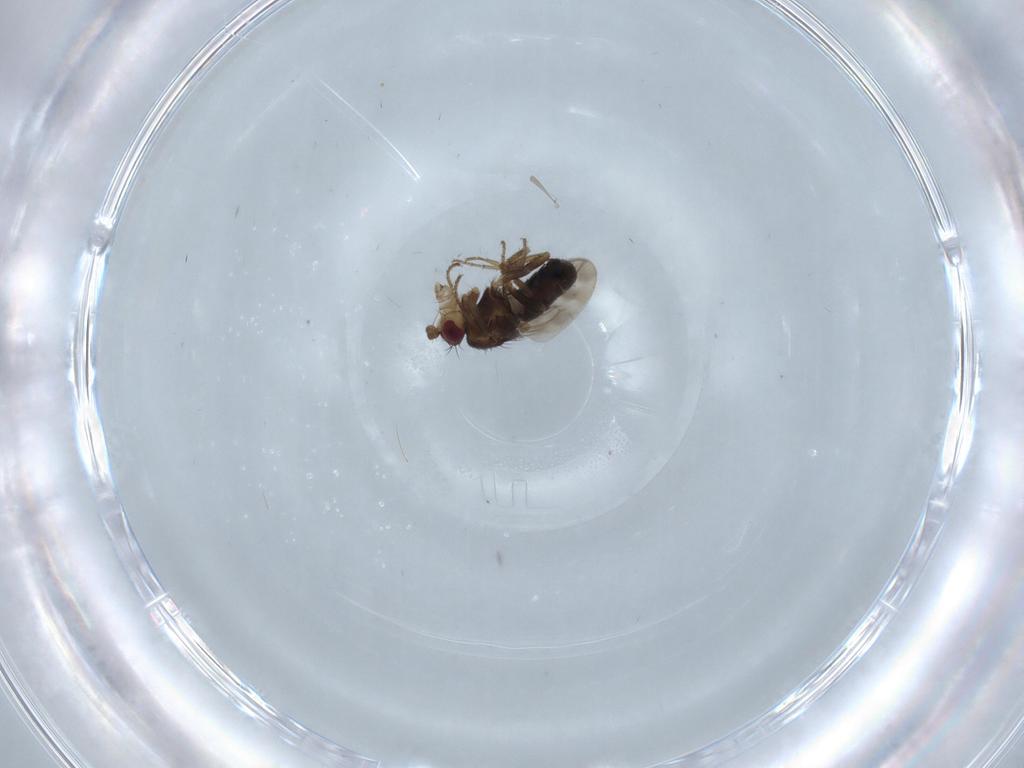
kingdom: Animalia
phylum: Arthropoda
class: Insecta
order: Diptera
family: Sphaeroceridae
